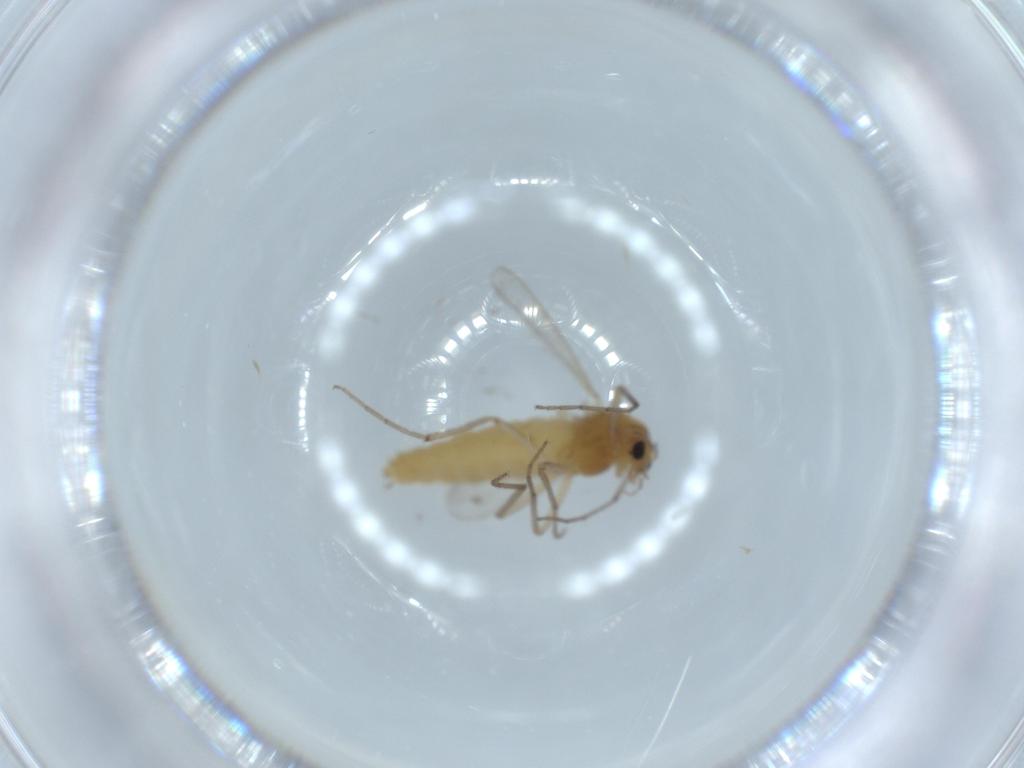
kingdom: Animalia
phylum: Arthropoda
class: Insecta
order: Diptera
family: Chironomidae
